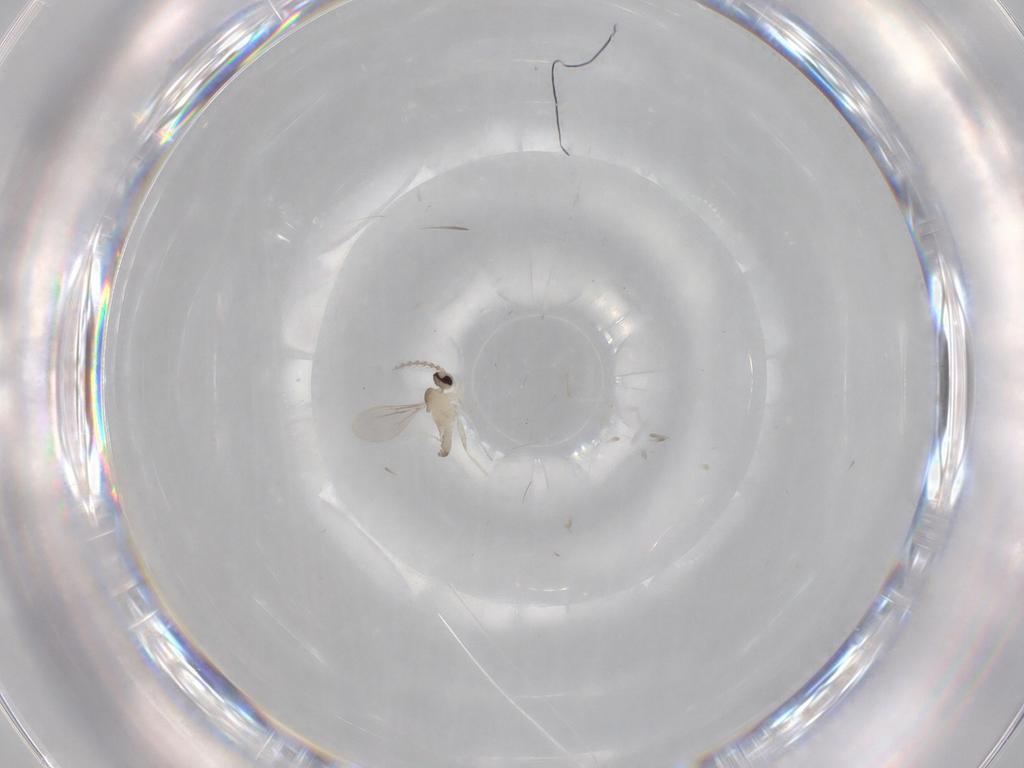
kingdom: Animalia
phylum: Arthropoda
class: Insecta
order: Diptera
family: Cecidomyiidae
